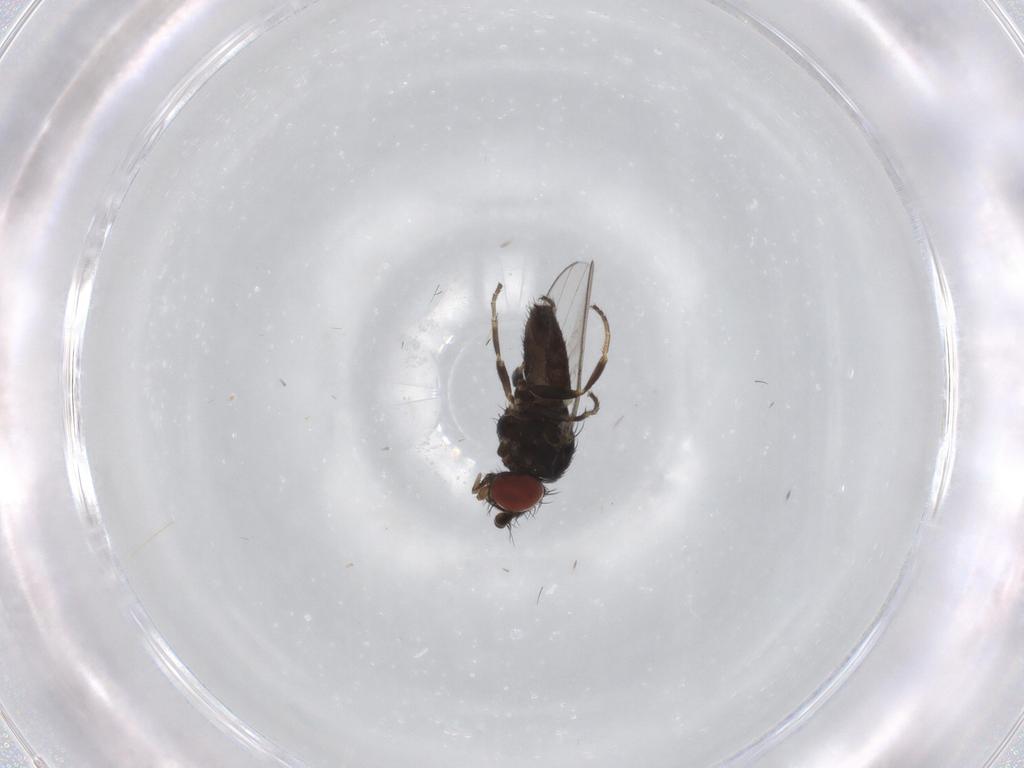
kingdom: Animalia
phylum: Arthropoda
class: Insecta
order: Diptera
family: Milichiidae
